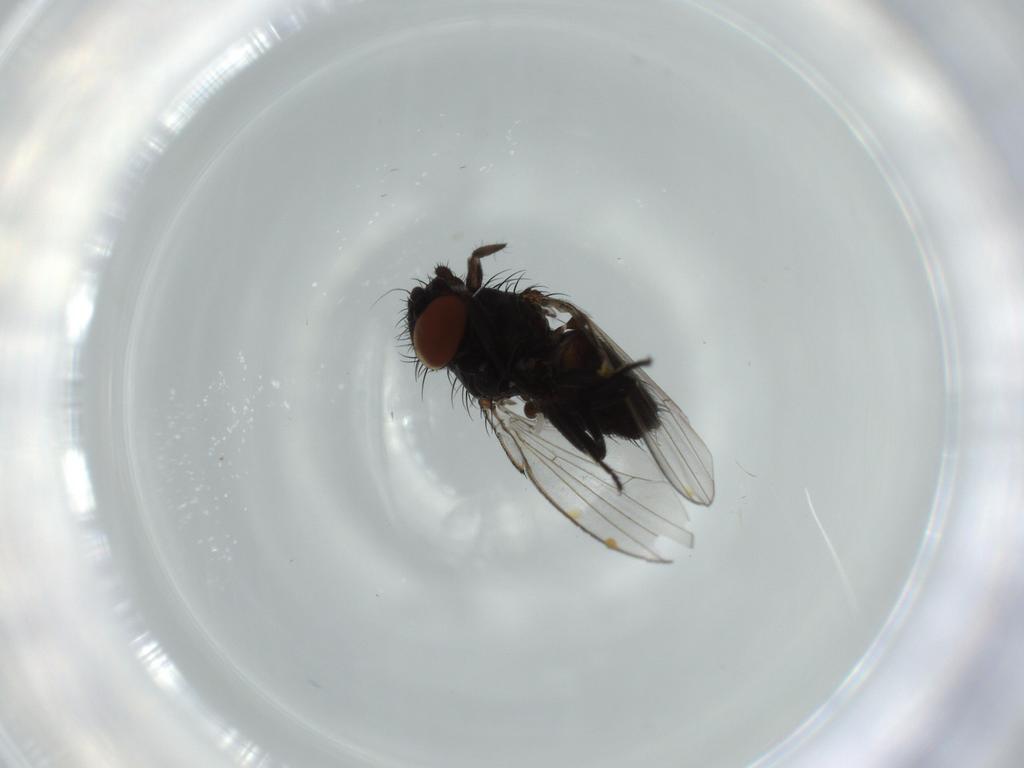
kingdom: Animalia
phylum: Arthropoda
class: Insecta
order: Diptera
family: Milichiidae
